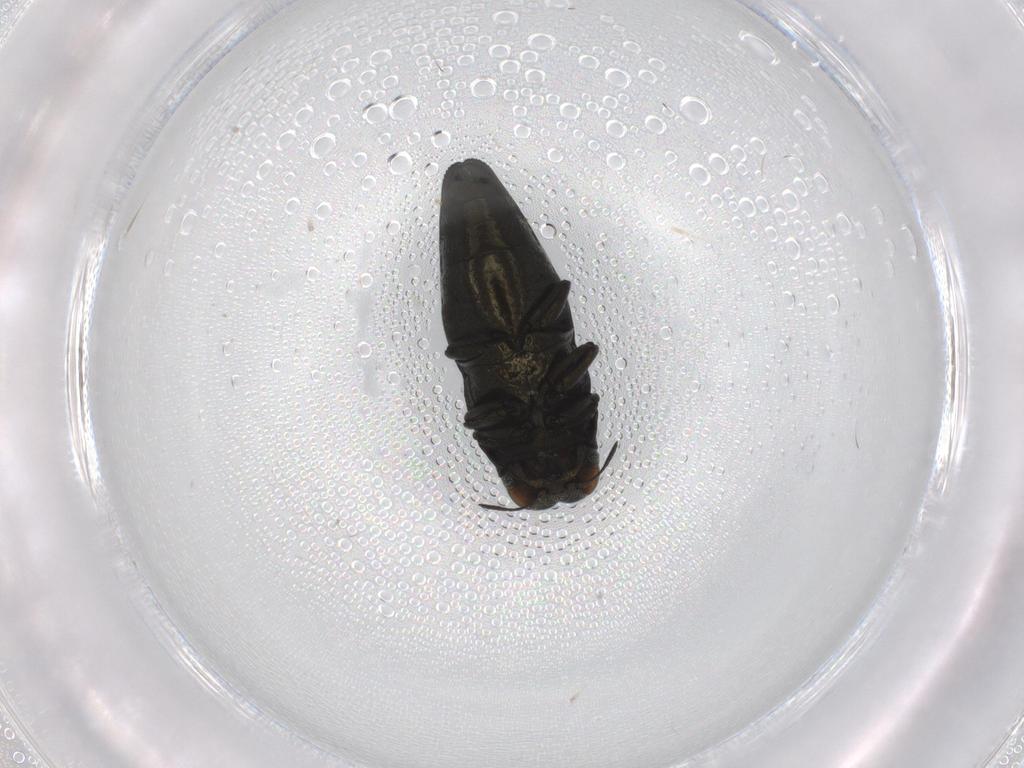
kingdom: Animalia
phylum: Arthropoda
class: Insecta
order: Coleoptera
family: Buprestidae
